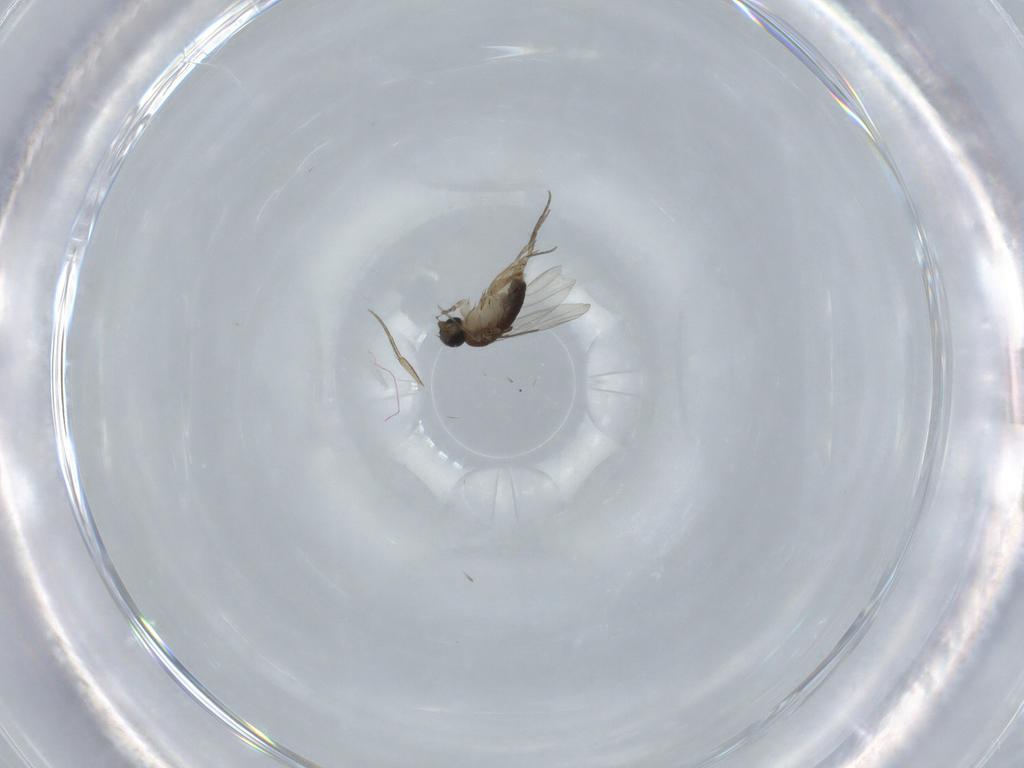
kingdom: Animalia
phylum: Arthropoda
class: Insecta
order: Diptera
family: Phoridae
